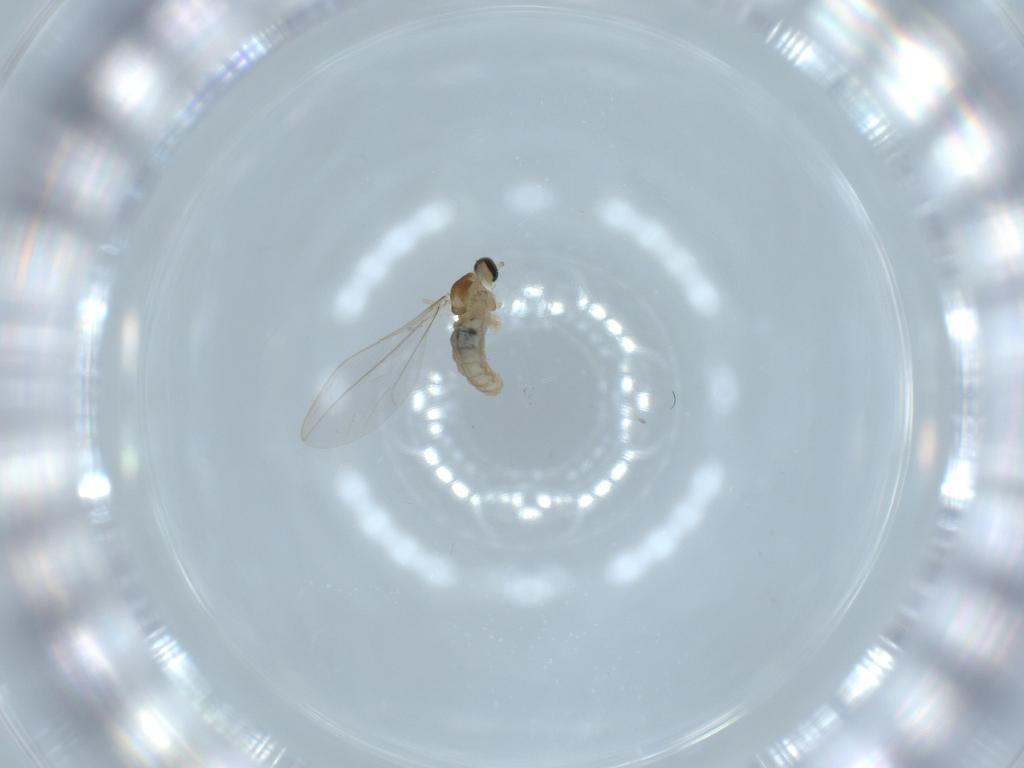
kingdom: Animalia
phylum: Arthropoda
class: Insecta
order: Diptera
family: Cecidomyiidae
